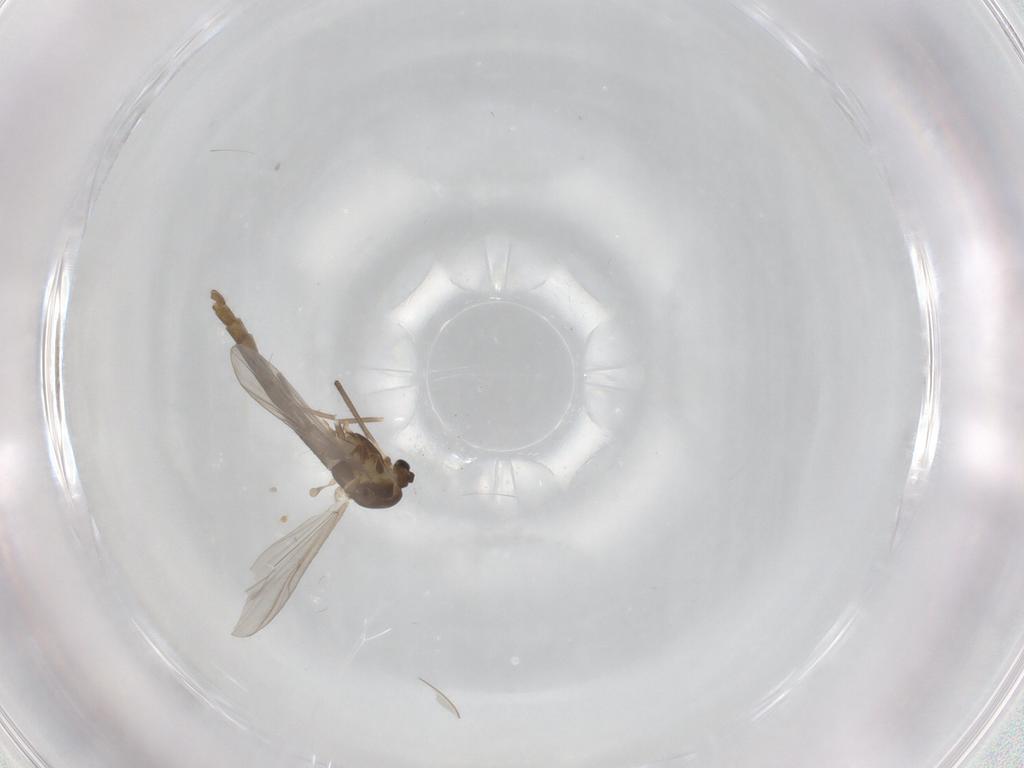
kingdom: Animalia
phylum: Arthropoda
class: Insecta
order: Diptera
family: Chironomidae
